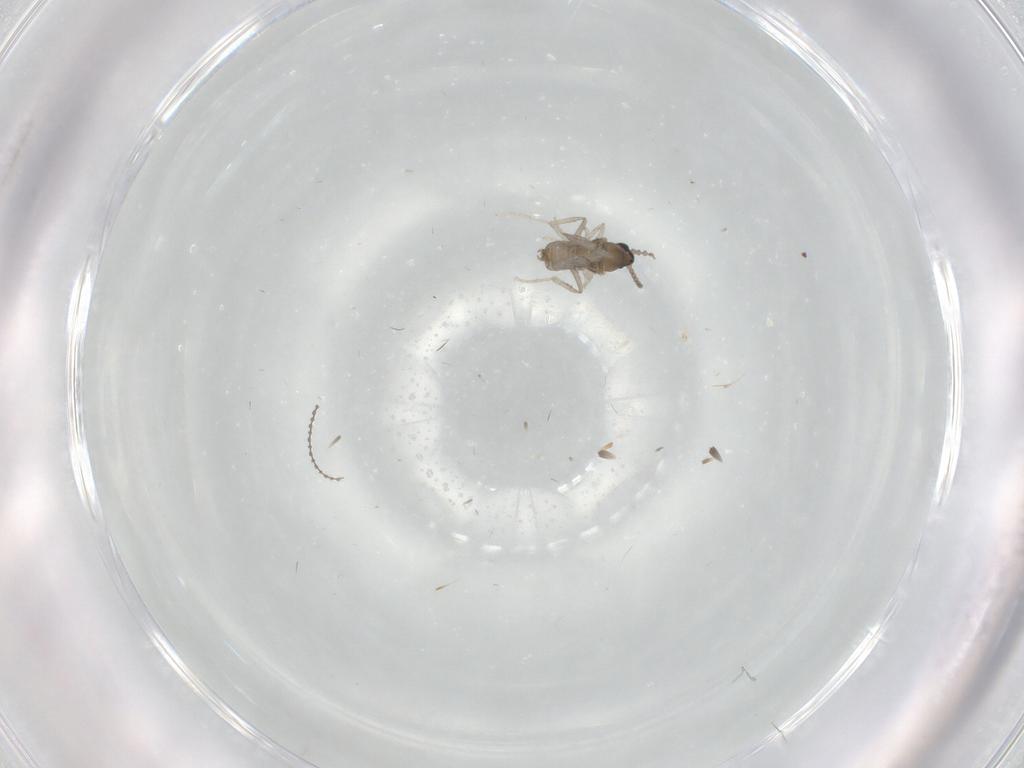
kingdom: Animalia
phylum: Arthropoda
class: Insecta
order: Diptera
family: Cecidomyiidae
